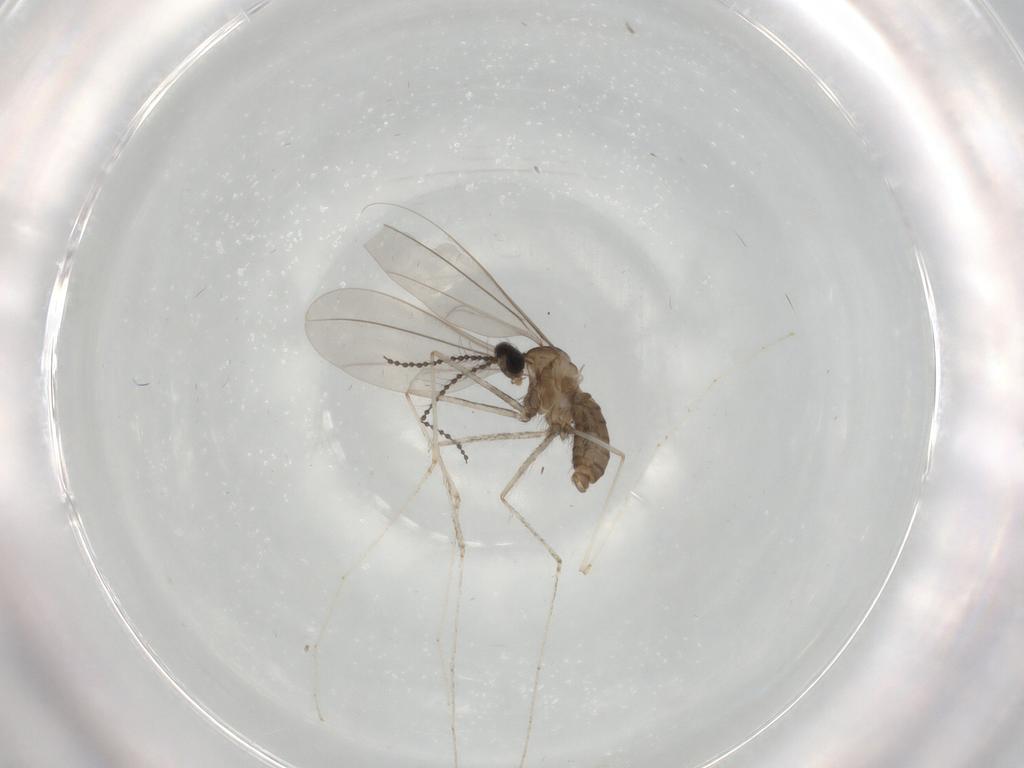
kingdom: Animalia
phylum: Arthropoda
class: Insecta
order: Diptera
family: Cecidomyiidae
